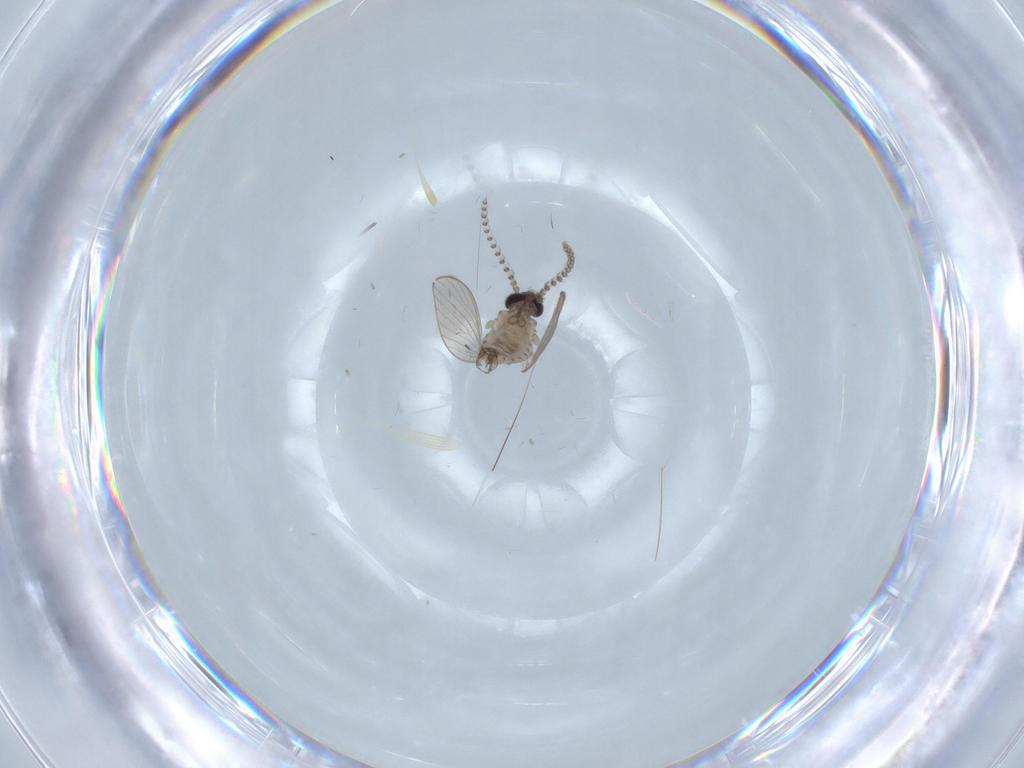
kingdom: Animalia
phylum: Arthropoda
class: Insecta
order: Diptera
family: Psychodidae
